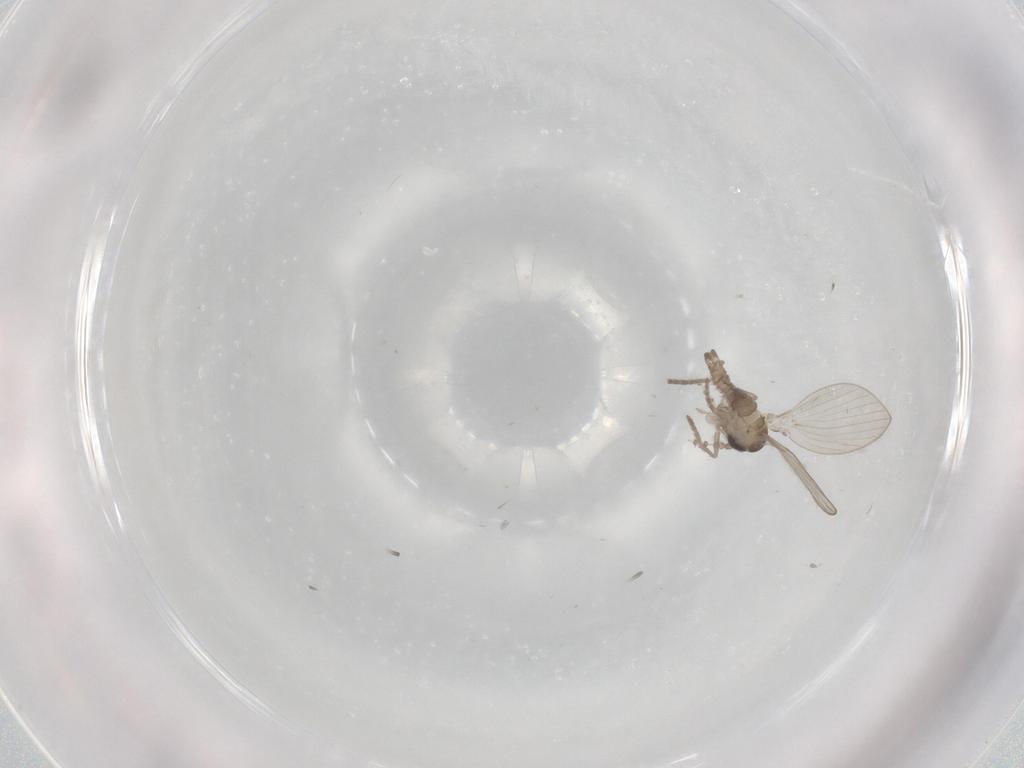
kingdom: Animalia
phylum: Arthropoda
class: Insecta
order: Diptera
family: Psychodidae
